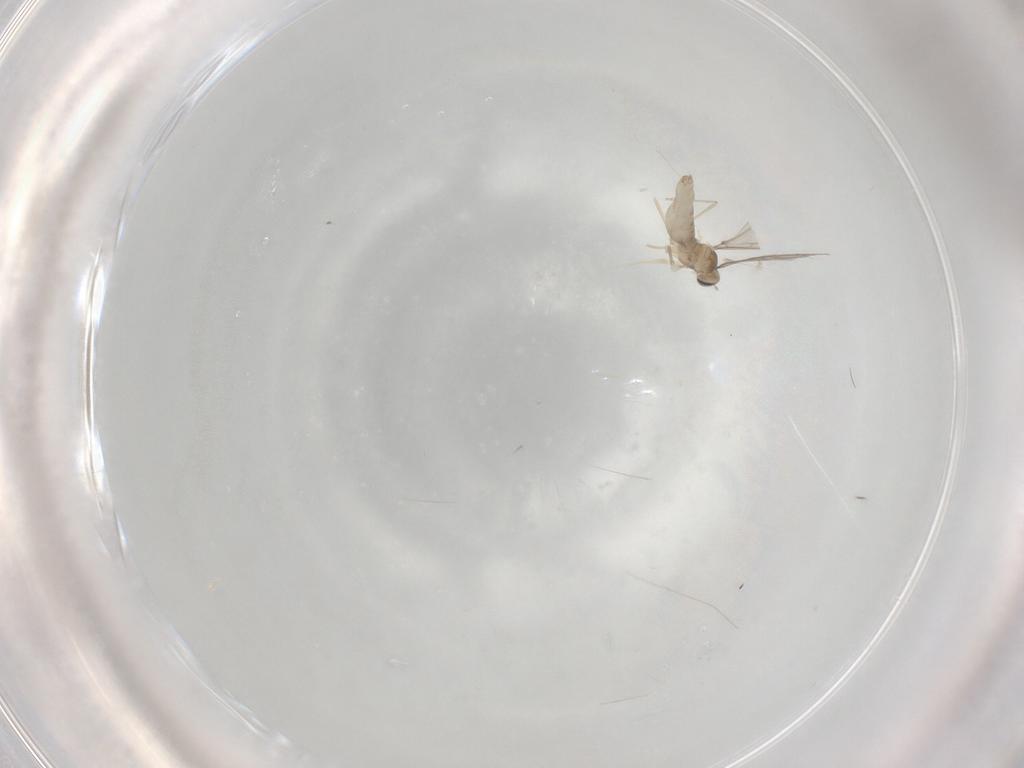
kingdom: Animalia
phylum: Arthropoda
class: Insecta
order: Diptera
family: Cecidomyiidae
